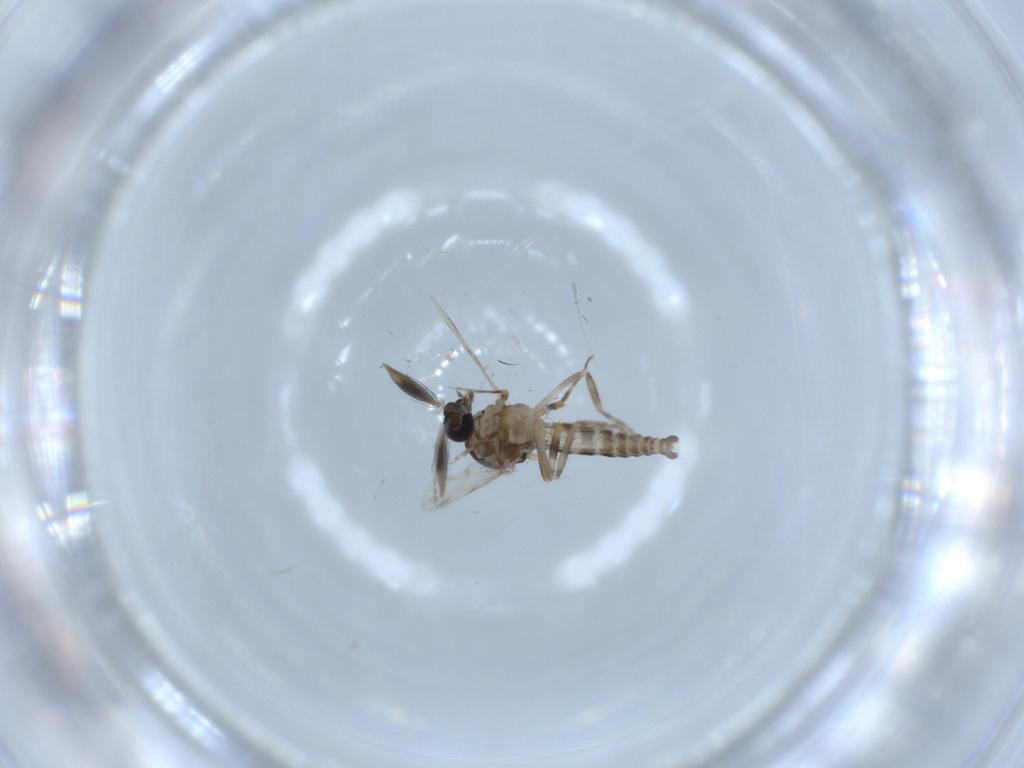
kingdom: Animalia
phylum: Arthropoda
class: Insecta
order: Diptera
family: Ceratopogonidae
